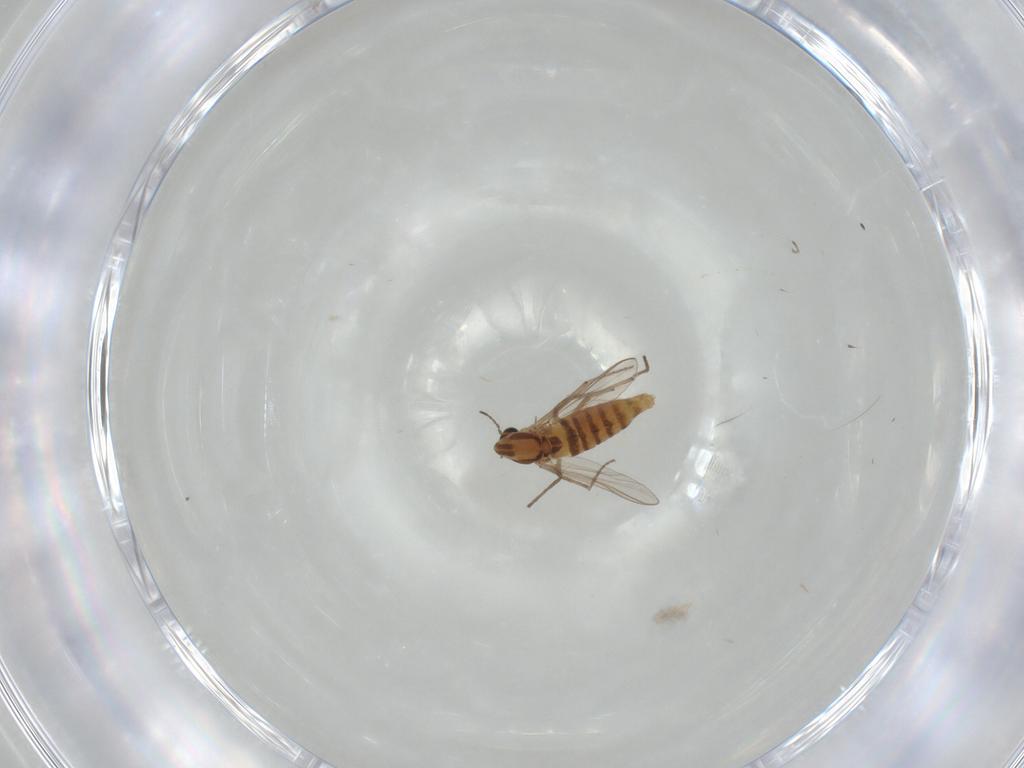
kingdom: Animalia
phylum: Arthropoda
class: Insecta
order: Diptera
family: Cecidomyiidae
